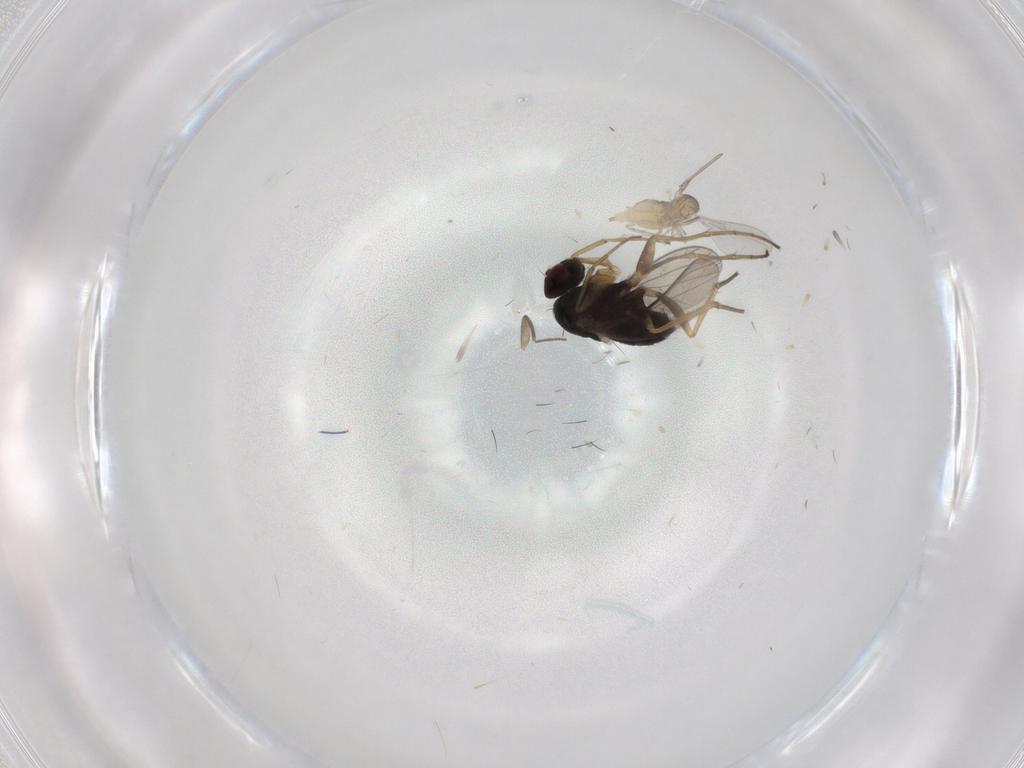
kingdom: Animalia
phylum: Arthropoda
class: Insecta
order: Diptera
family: Dolichopodidae
